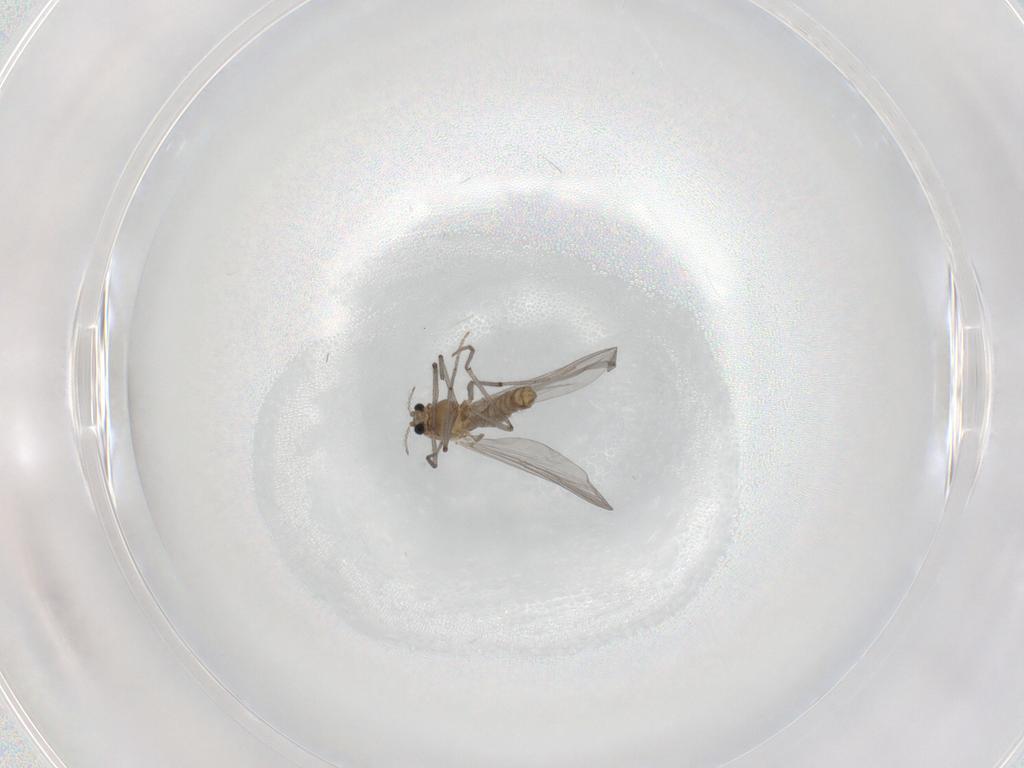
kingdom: Animalia
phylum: Arthropoda
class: Insecta
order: Diptera
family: Chironomidae
